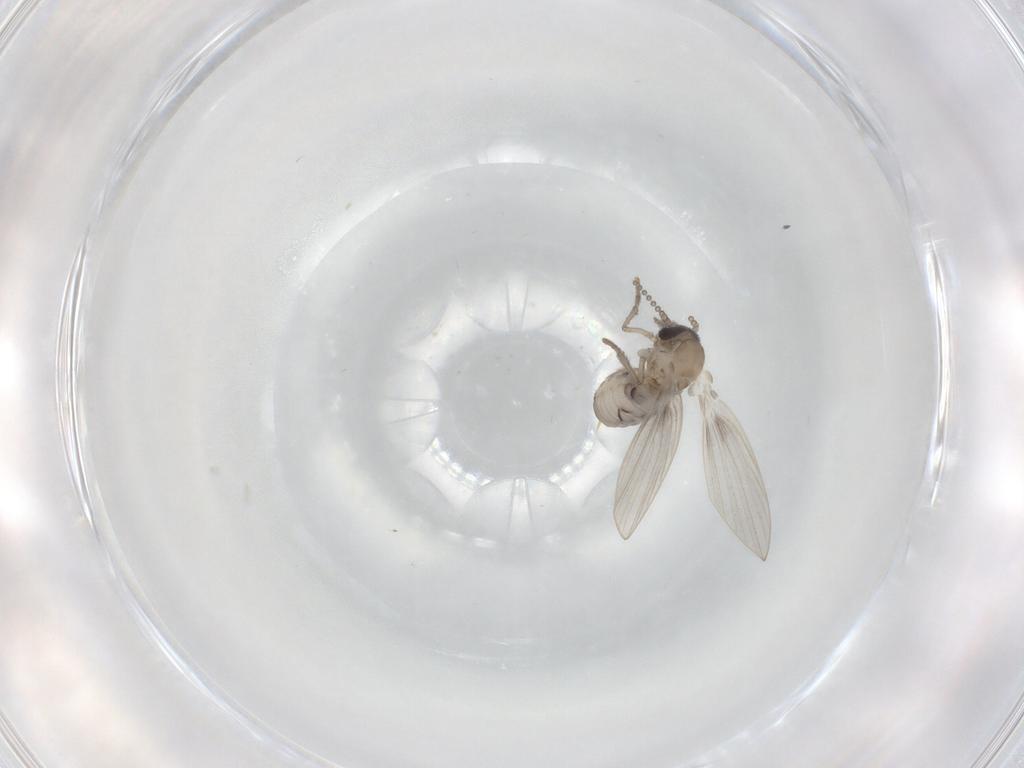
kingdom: Animalia
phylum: Arthropoda
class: Insecta
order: Diptera
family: Psychodidae
